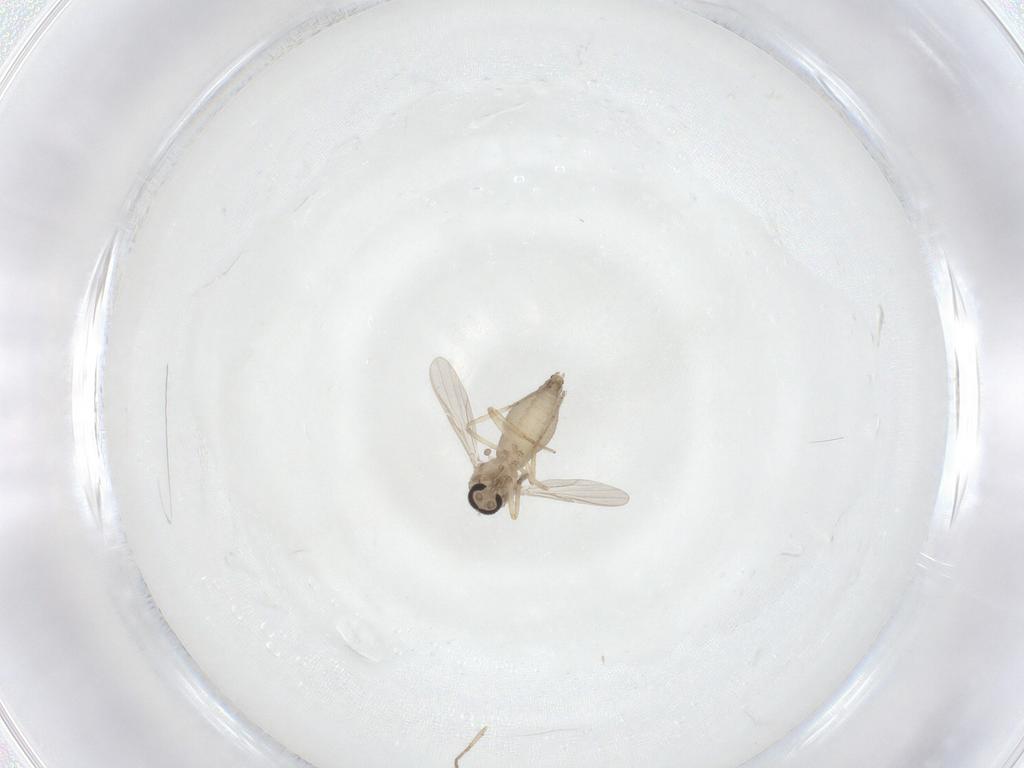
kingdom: Animalia
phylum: Arthropoda
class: Insecta
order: Diptera
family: Ceratopogonidae
